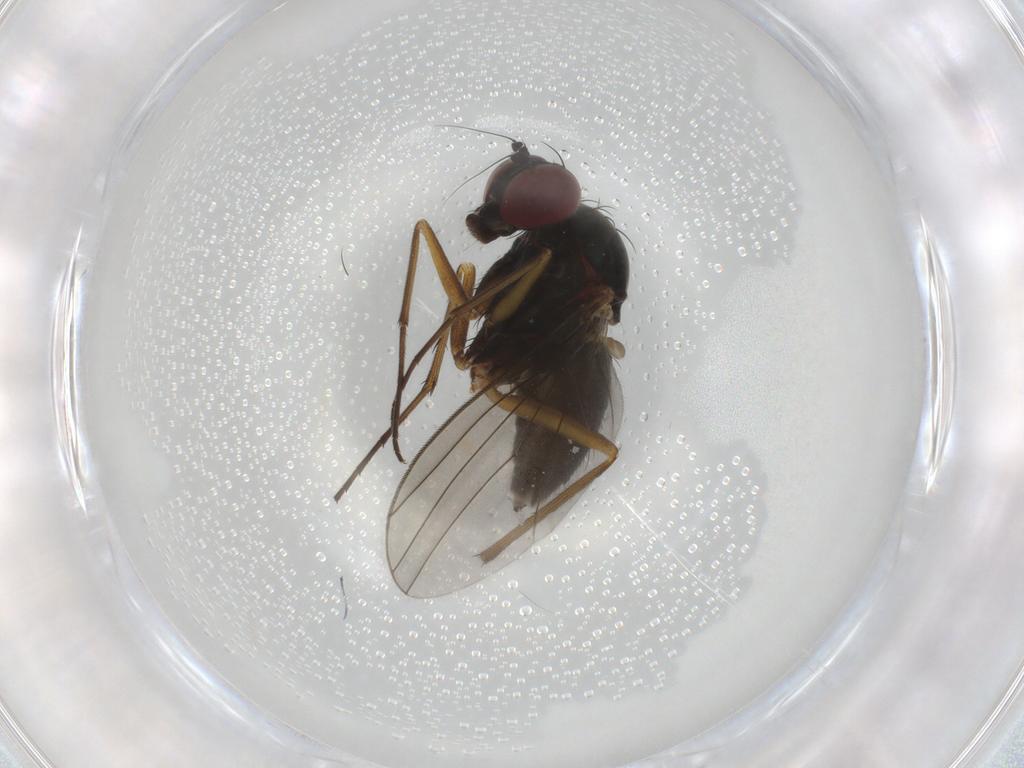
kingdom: Animalia
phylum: Arthropoda
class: Insecta
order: Diptera
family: Dolichopodidae
